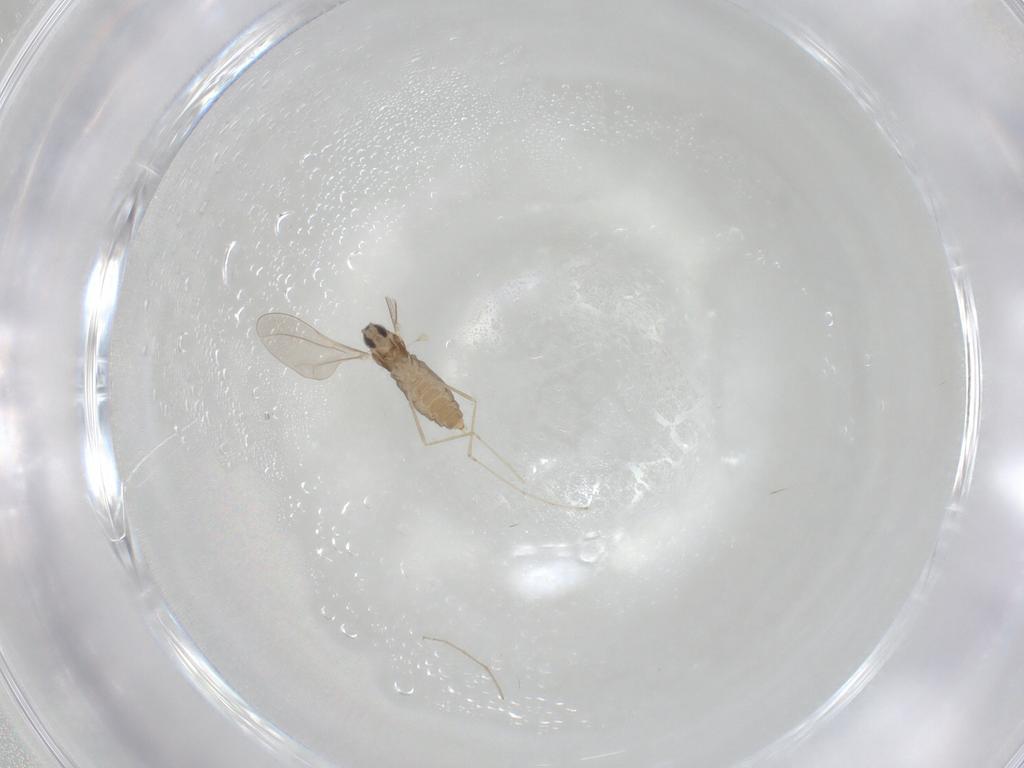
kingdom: Animalia
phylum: Arthropoda
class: Insecta
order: Diptera
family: Cecidomyiidae
